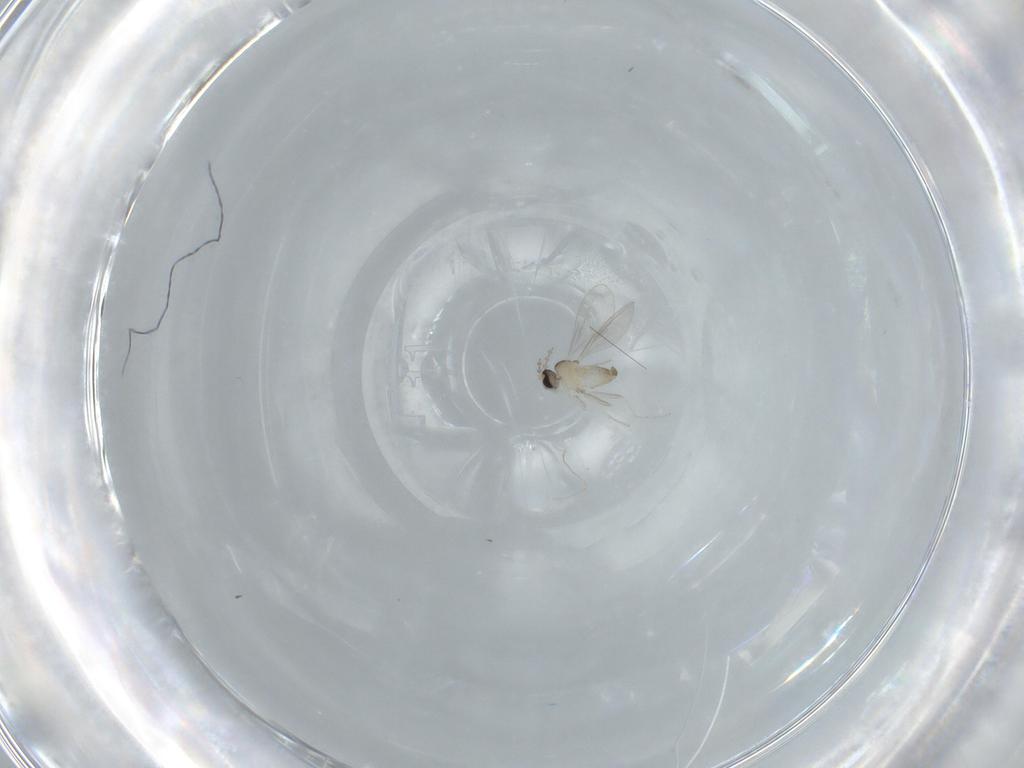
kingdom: Animalia
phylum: Arthropoda
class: Insecta
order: Diptera
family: Cecidomyiidae
